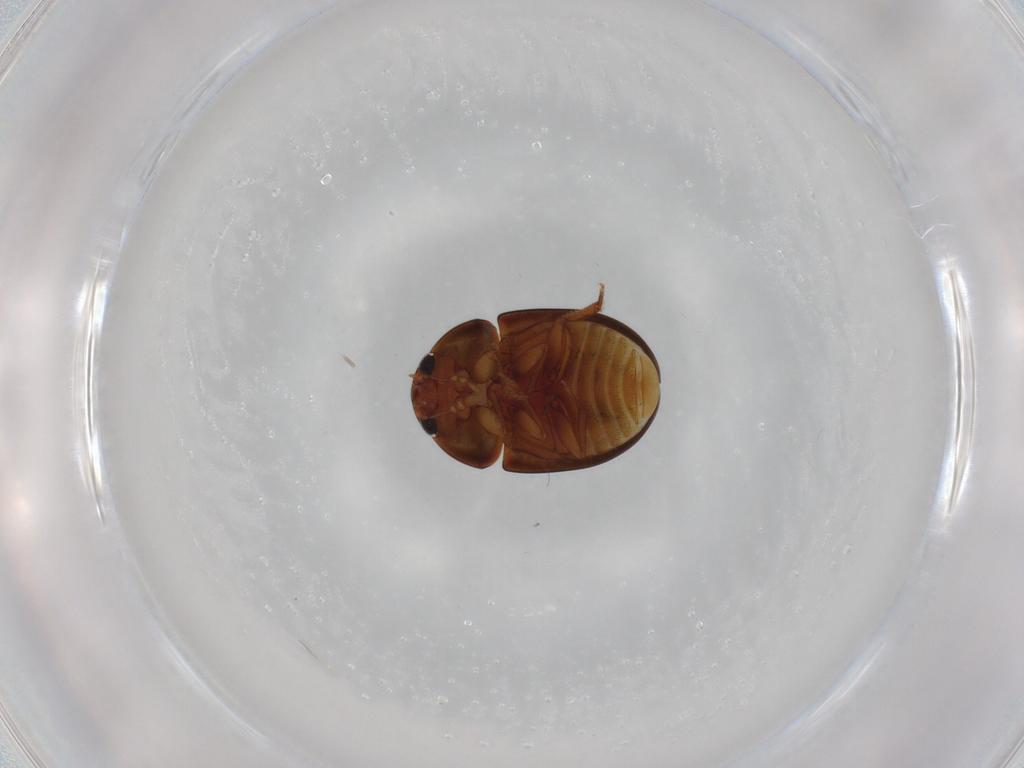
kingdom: Animalia
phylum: Arthropoda
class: Insecta
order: Coleoptera
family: Phalacridae
